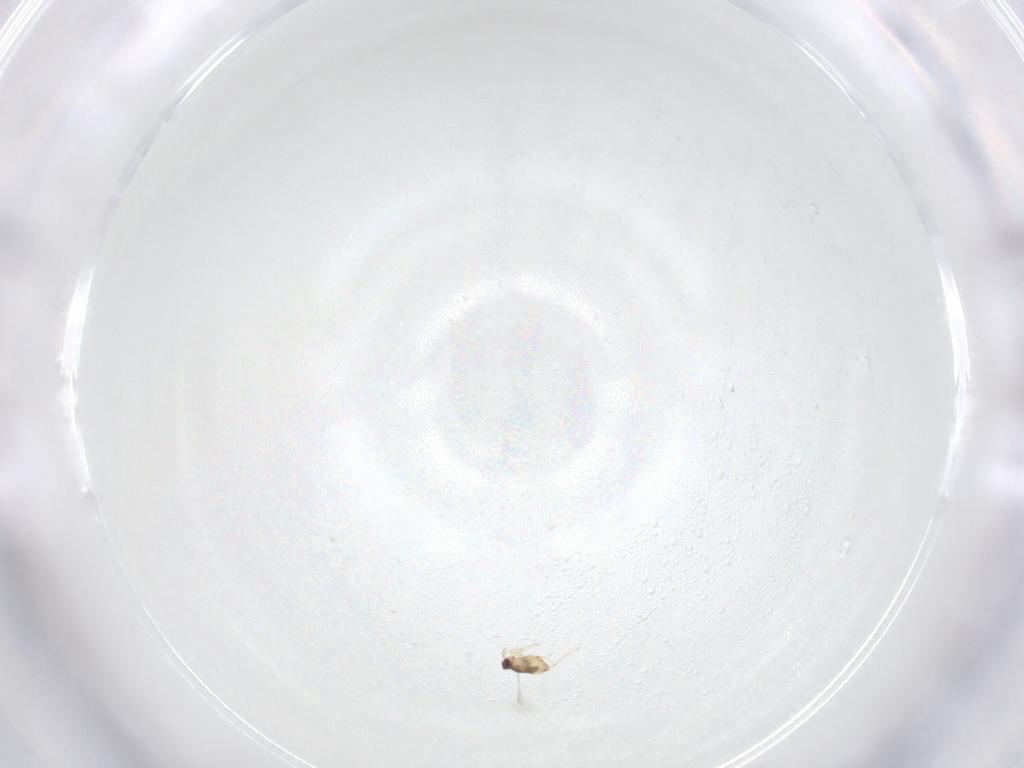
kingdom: Animalia
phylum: Arthropoda
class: Insecta
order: Hymenoptera
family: Mymaridae
